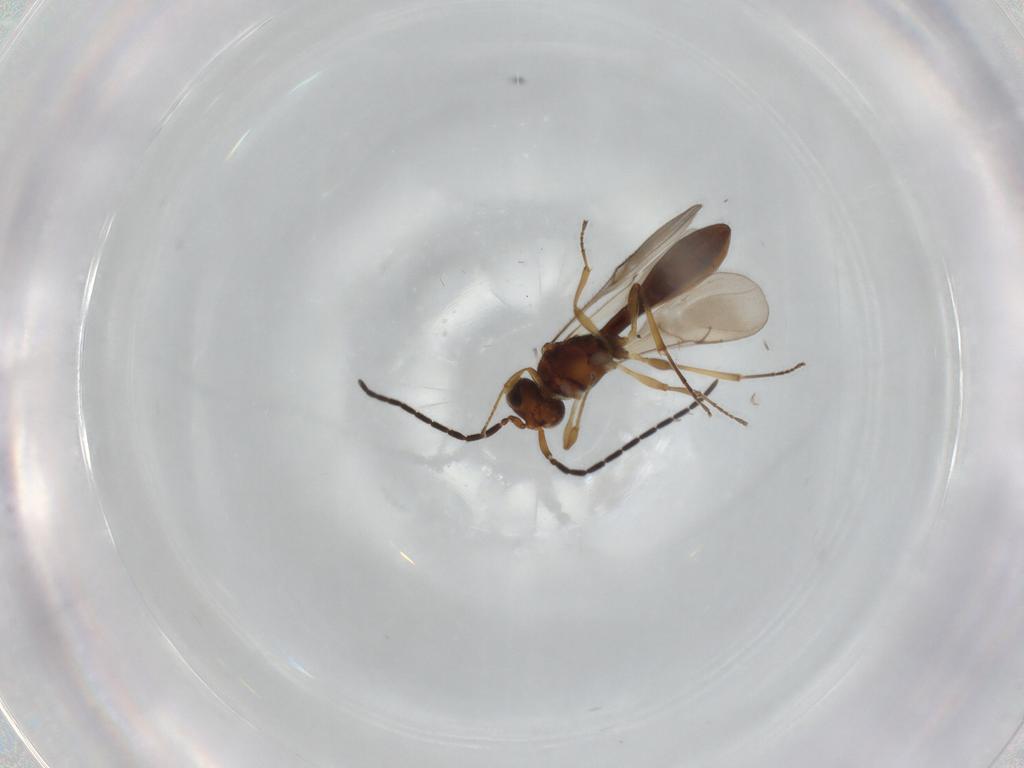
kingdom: Animalia
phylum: Arthropoda
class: Insecta
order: Hymenoptera
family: Scelionidae
